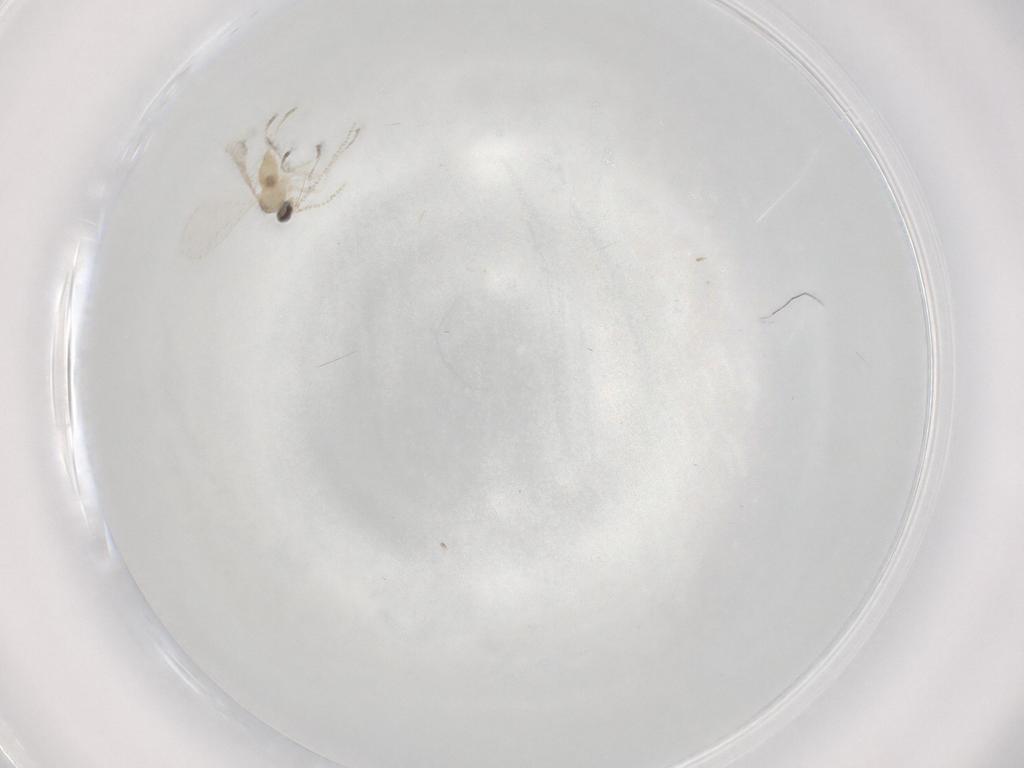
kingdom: Animalia
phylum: Arthropoda
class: Insecta
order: Diptera
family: Cecidomyiidae
